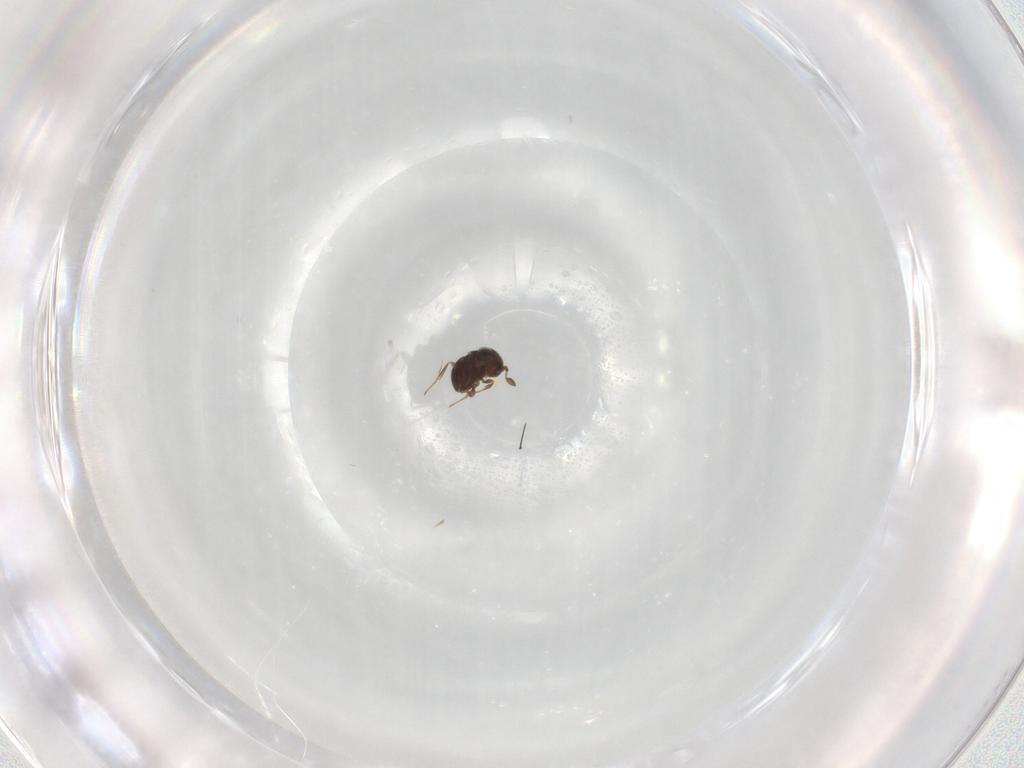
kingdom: Animalia
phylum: Arthropoda
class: Insecta
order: Hymenoptera
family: Scelionidae
